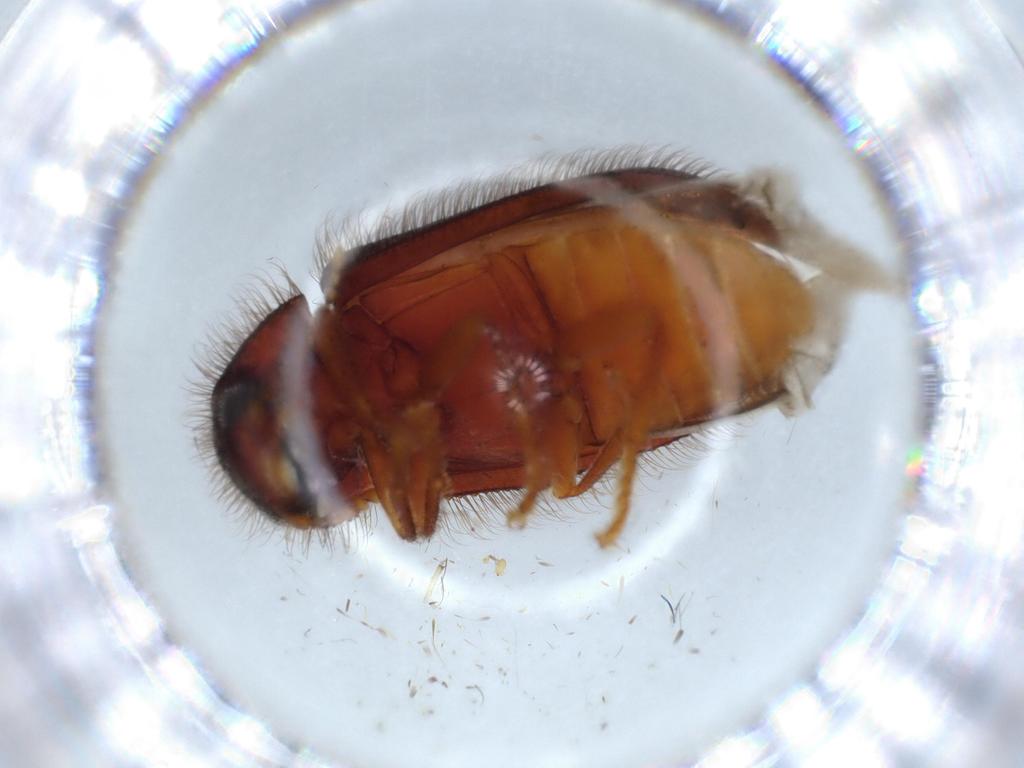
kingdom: Animalia
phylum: Arthropoda
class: Insecta
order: Coleoptera
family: Rhadalidae
